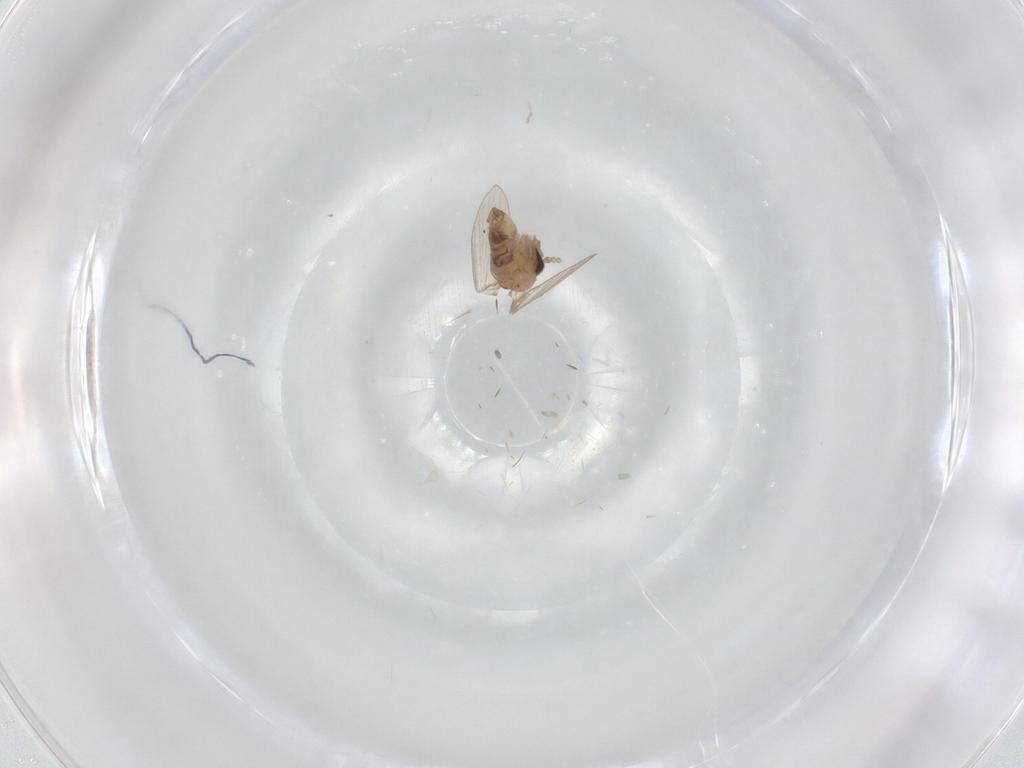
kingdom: Animalia
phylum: Arthropoda
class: Insecta
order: Diptera
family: Psychodidae
